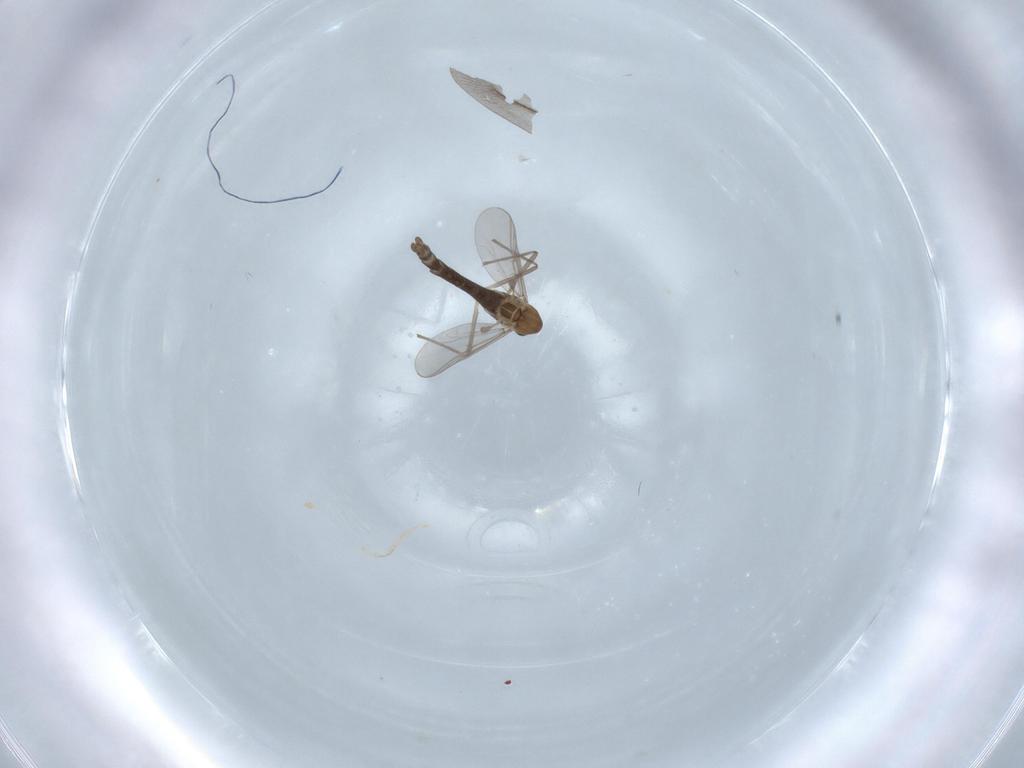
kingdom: Animalia
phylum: Arthropoda
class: Insecta
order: Diptera
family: Chironomidae
